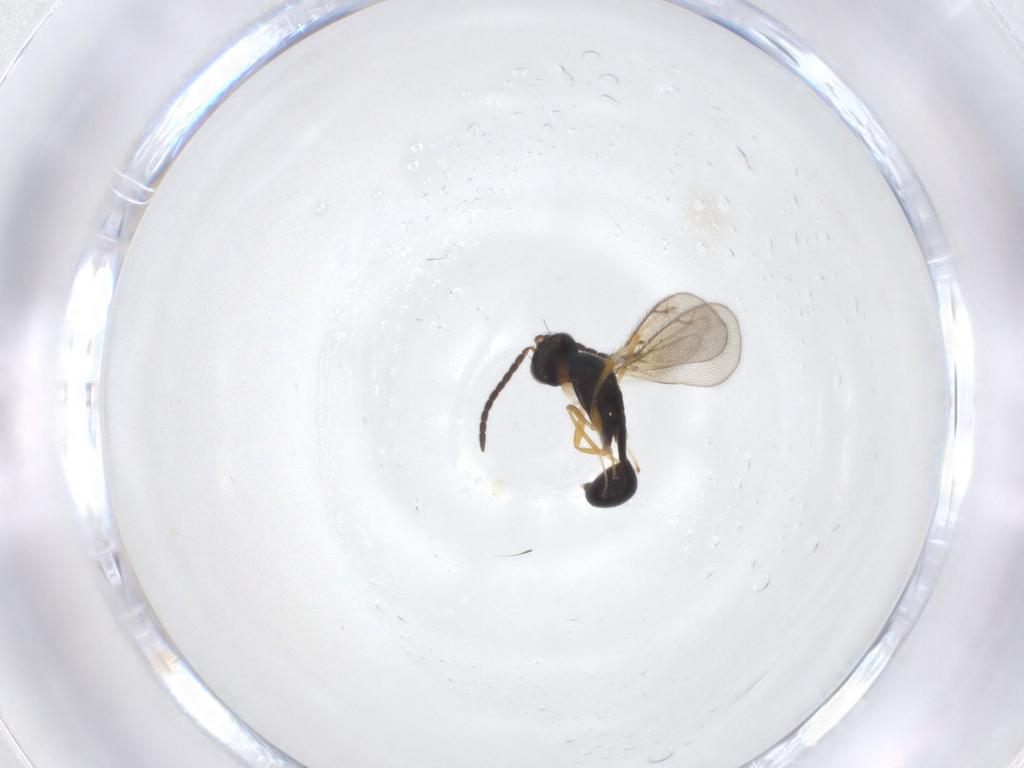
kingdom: Animalia
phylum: Arthropoda
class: Insecta
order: Hymenoptera
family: Diparidae
